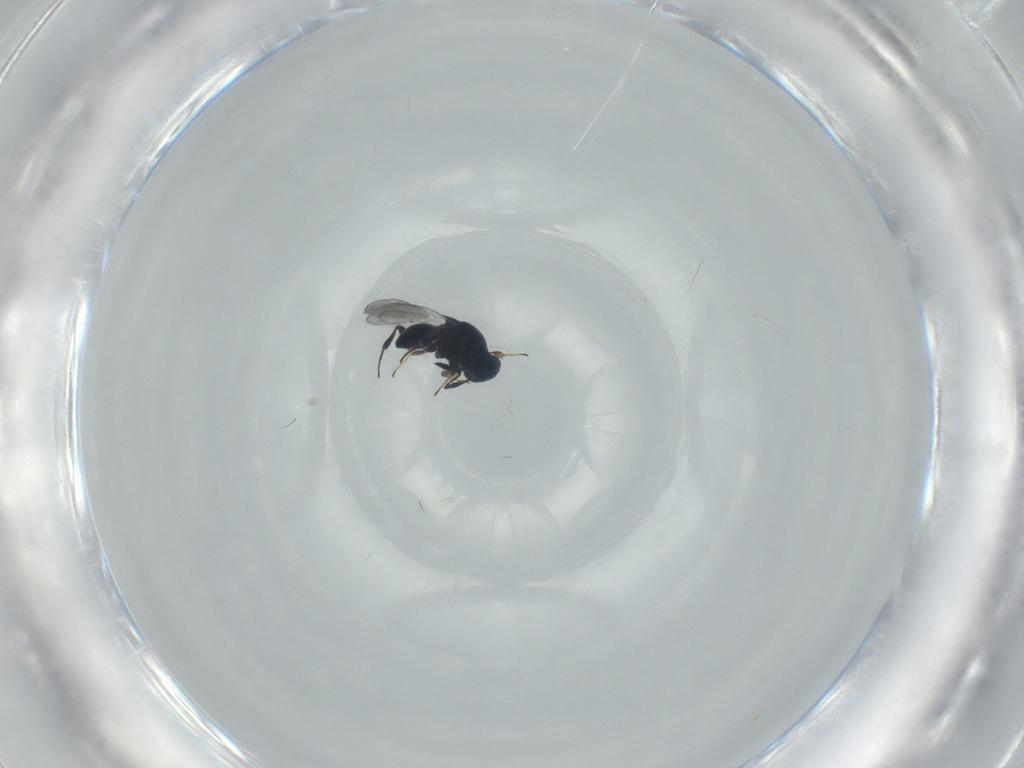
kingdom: Animalia
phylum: Arthropoda
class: Insecta
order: Hymenoptera
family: Platygastridae
